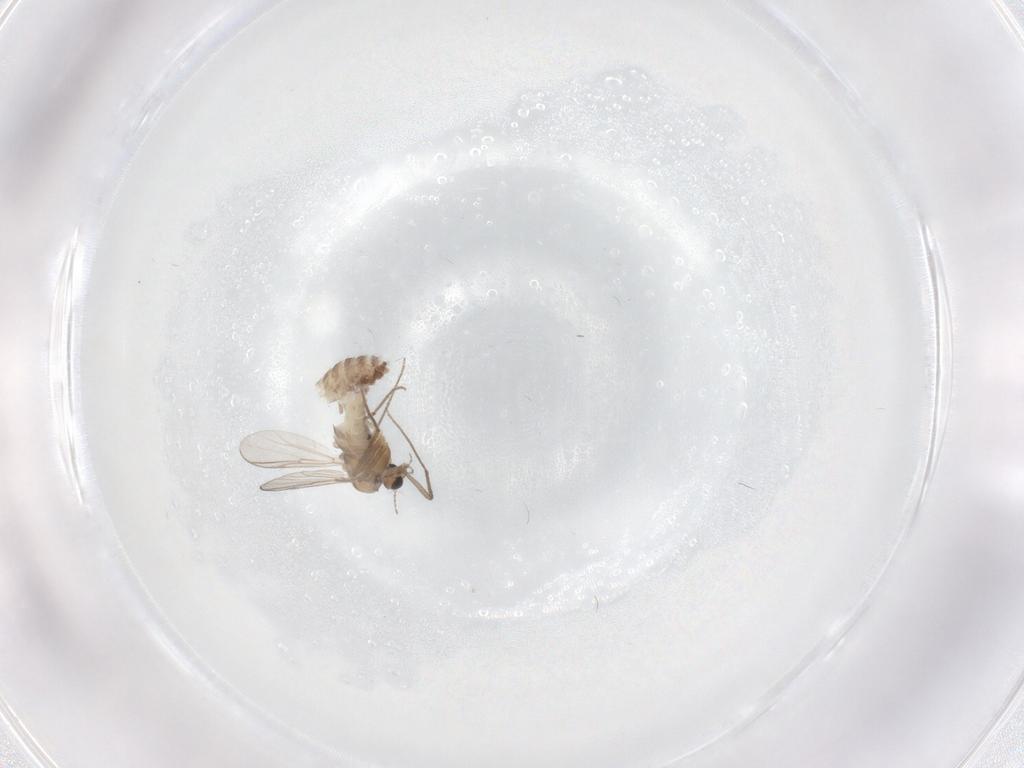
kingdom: Animalia
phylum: Arthropoda
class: Insecta
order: Diptera
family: Chironomidae
